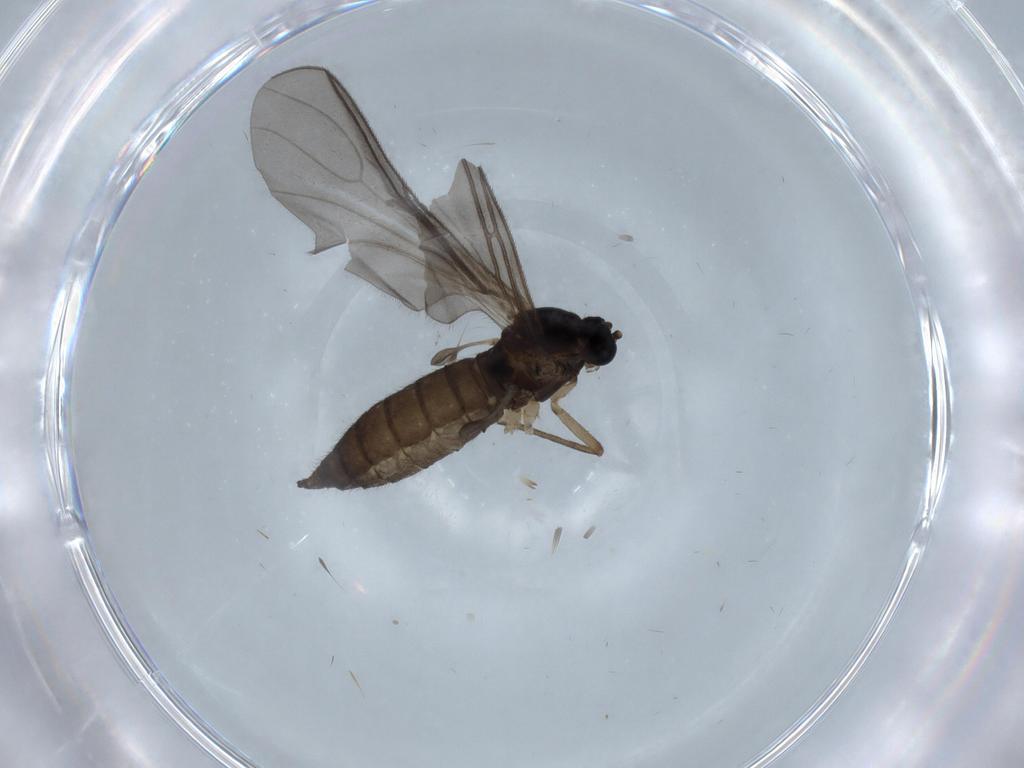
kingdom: Animalia
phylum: Arthropoda
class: Insecta
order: Diptera
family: Sciaridae
